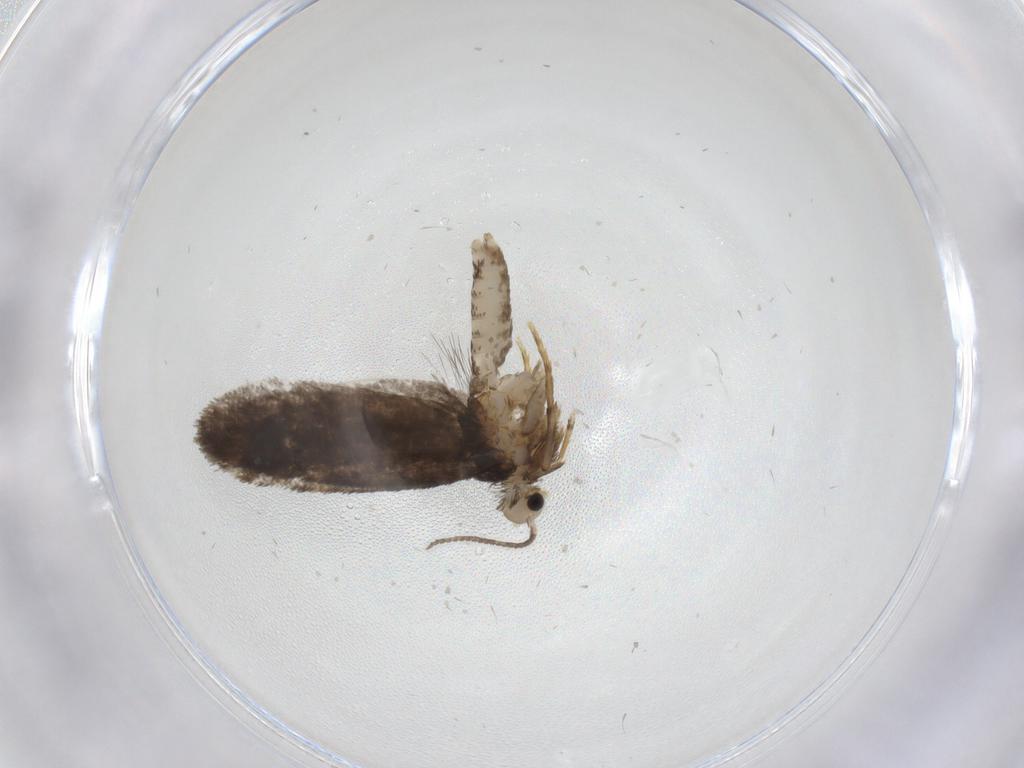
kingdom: Animalia
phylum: Arthropoda
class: Insecta
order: Lepidoptera
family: Psychidae
